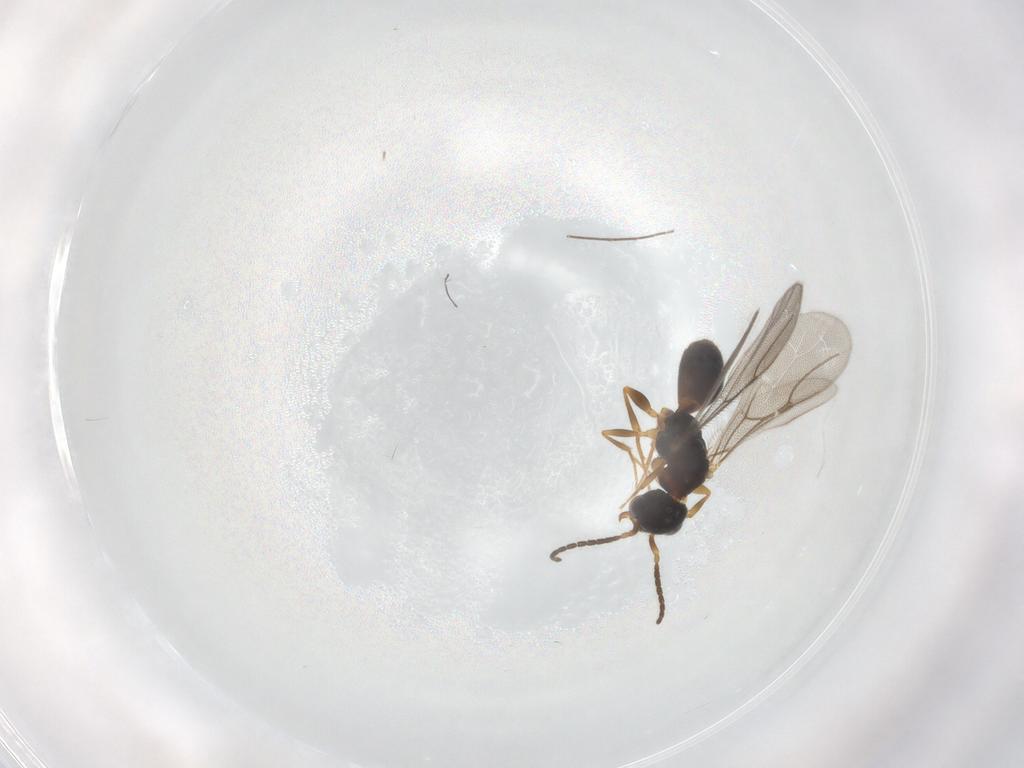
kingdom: Animalia
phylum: Arthropoda
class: Insecta
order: Hymenoptera
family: Bethylidae
